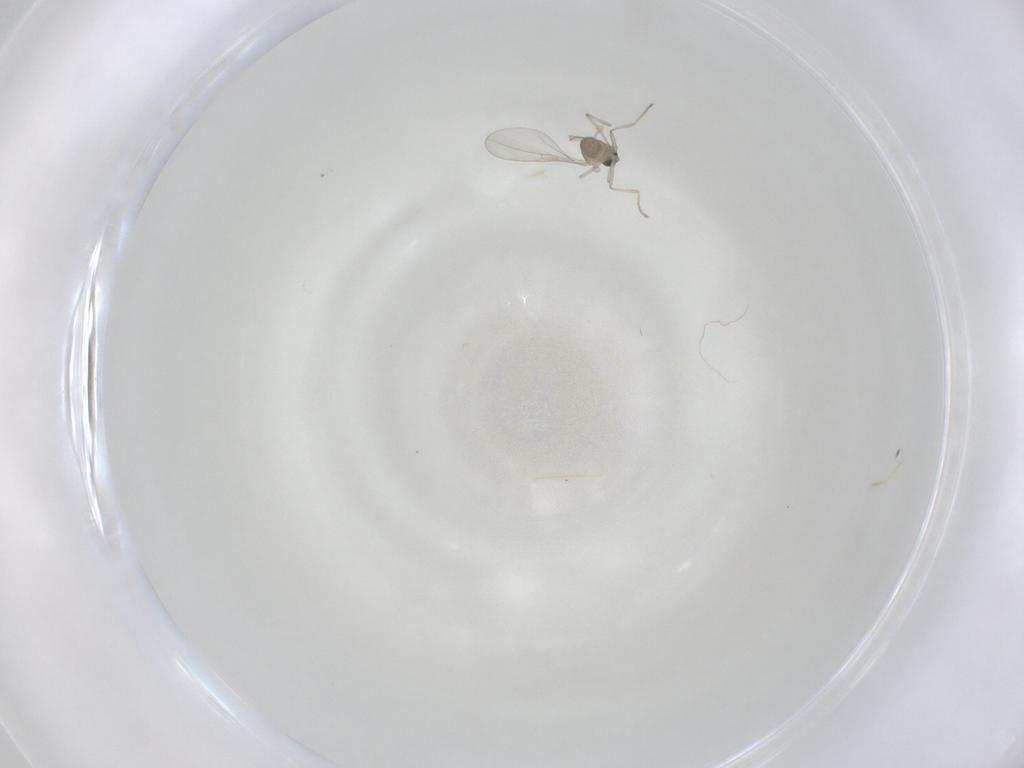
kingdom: Animalia
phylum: Arthropoda
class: Insecta
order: Diptera
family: Cecidomyiidae
